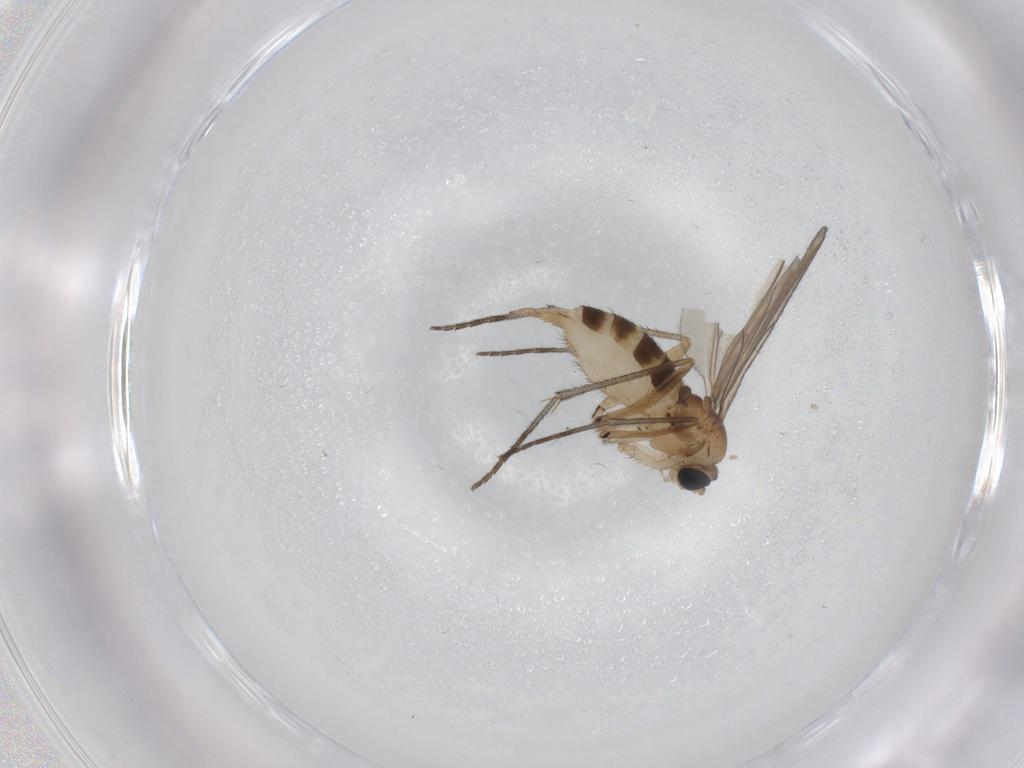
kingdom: Animalia
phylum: Arthropoda
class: Insecta
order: Diptera
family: Sciaridae
